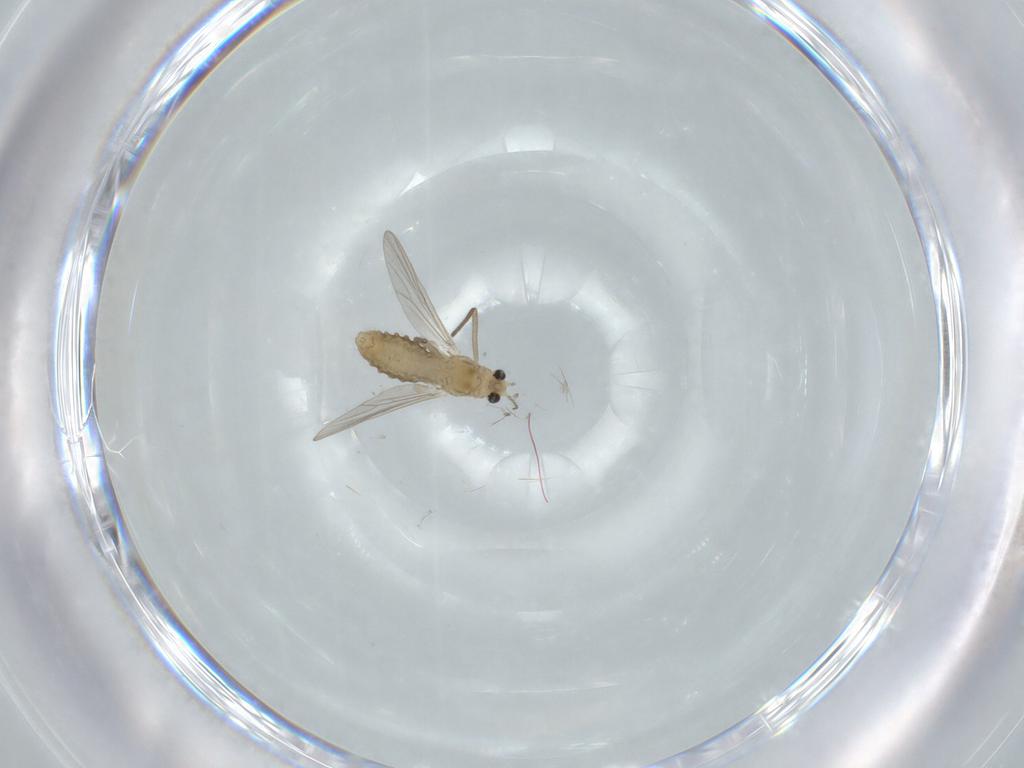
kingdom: Animalia
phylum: Arthropoda
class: Insecta
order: Diptera
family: Chironomidae
